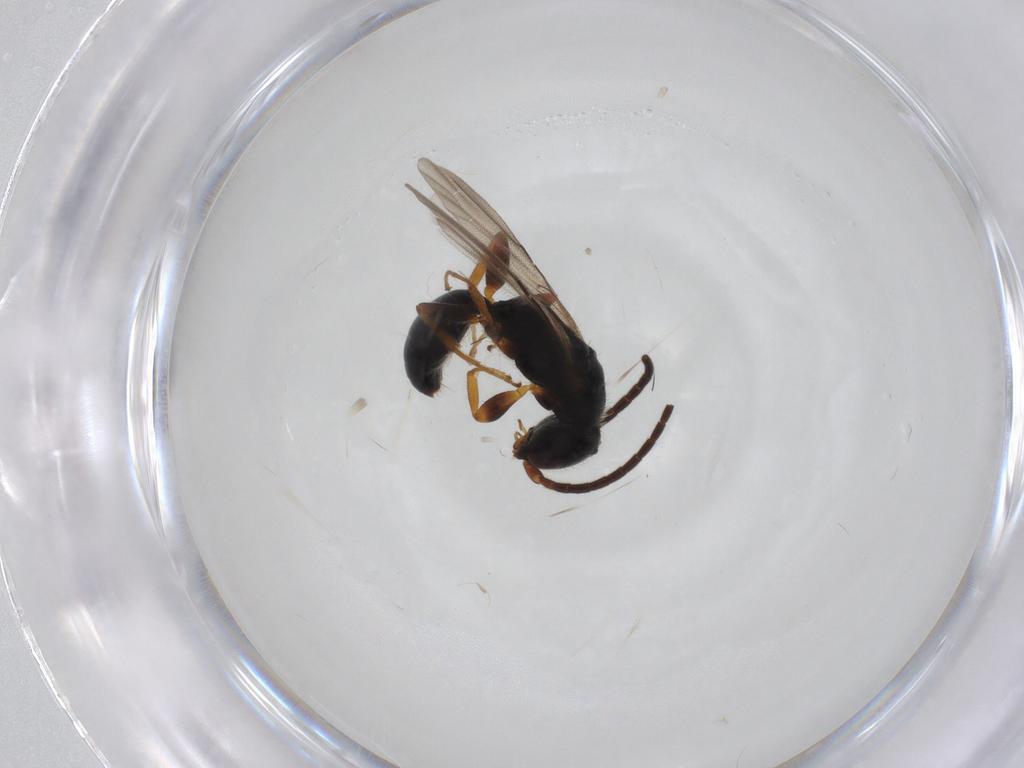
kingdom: Animalia
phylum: Arthropoda
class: Insecta
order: Hymenoptera
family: Bethylidae
